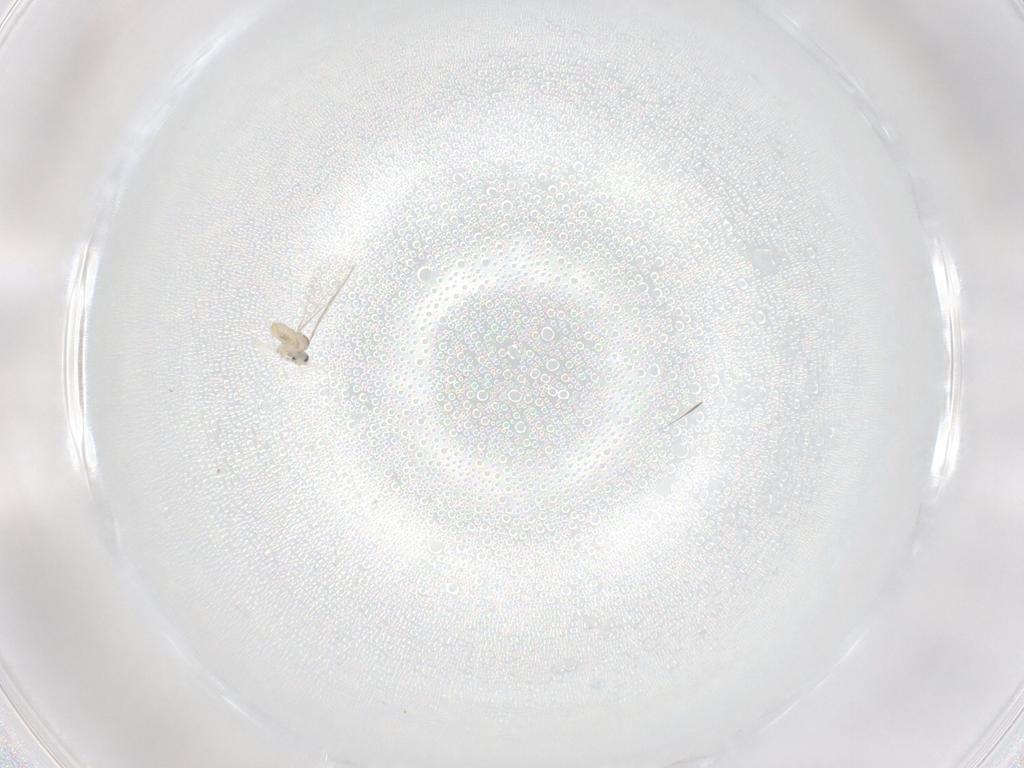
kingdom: Animalia
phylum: Arthropoda
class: Insecta
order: Diptera
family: Cecidomyiidae
